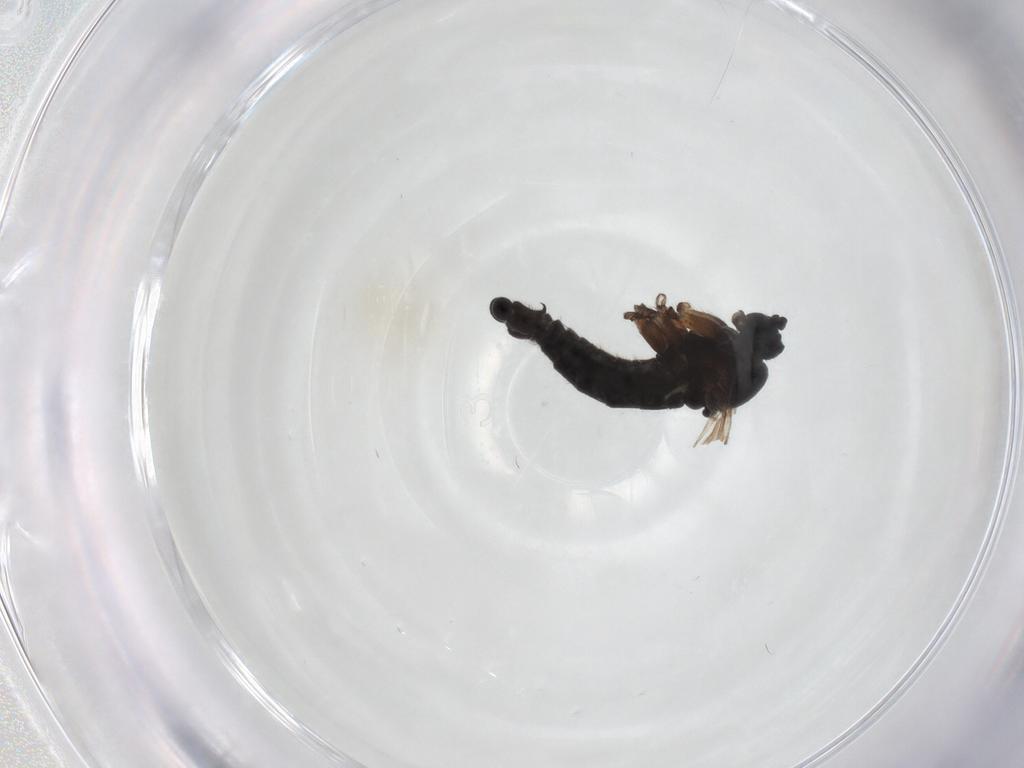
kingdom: Animalia
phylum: Arthropoda
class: Insecta
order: Diptera
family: Sciaridae
